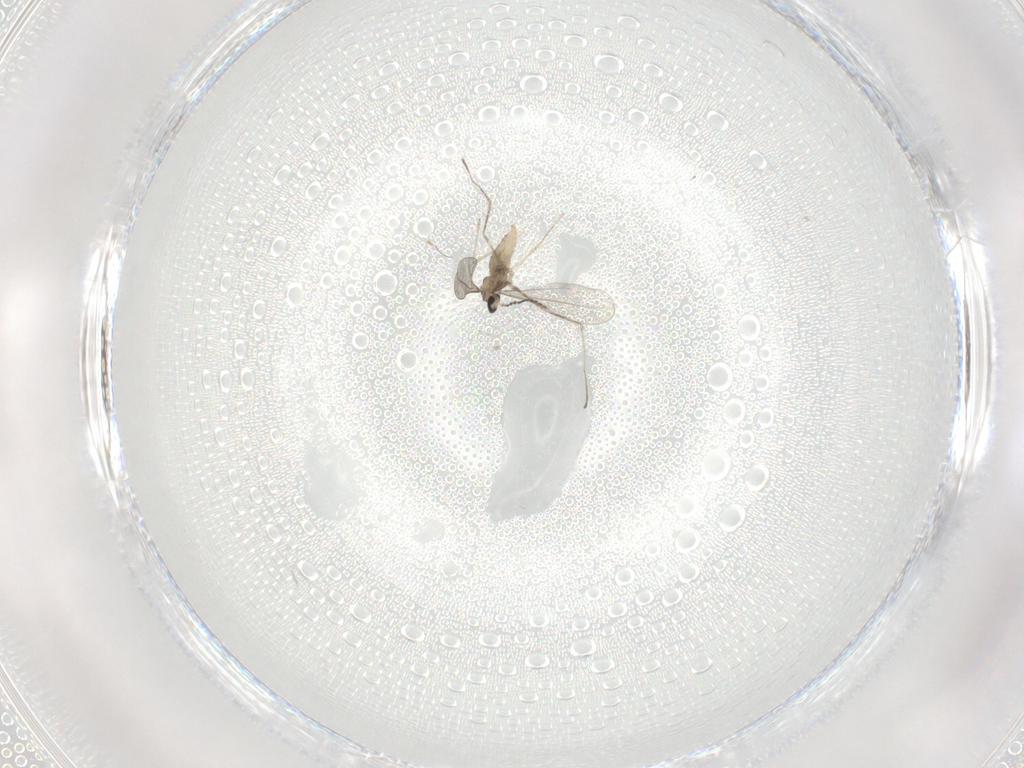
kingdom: Animalia
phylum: Arthropoda
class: Insecta
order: Diptera
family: Cecidomyiidae
